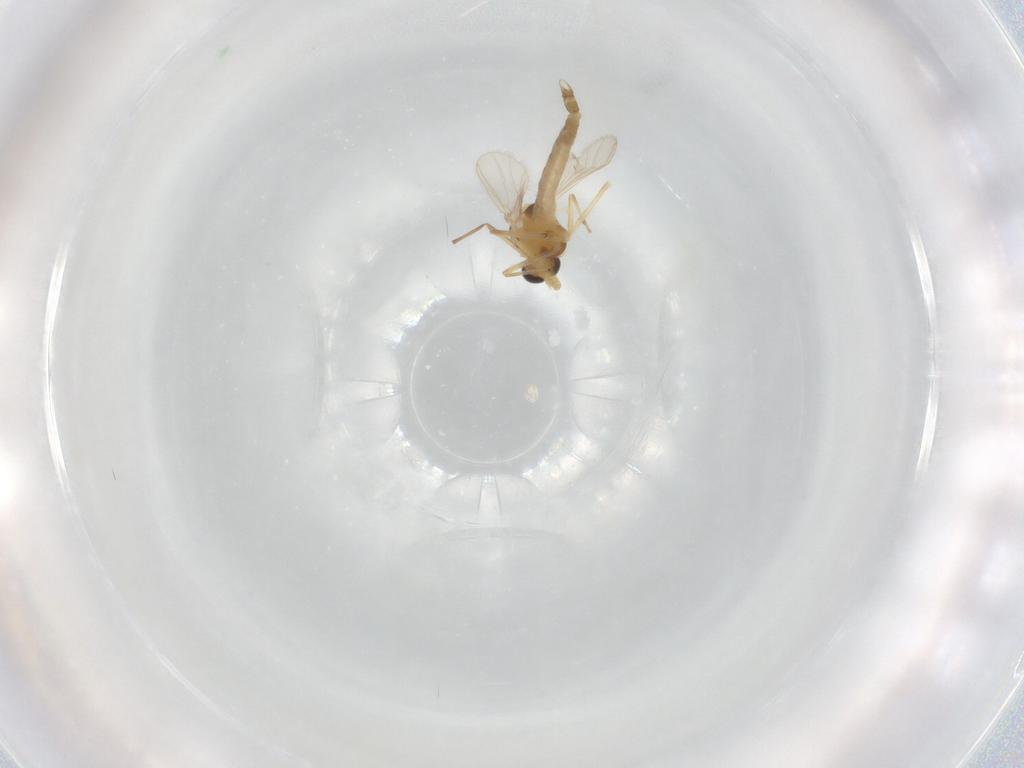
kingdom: Animalia
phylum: Arthropoda
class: Insecta
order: Diptera
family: Chironomidae
